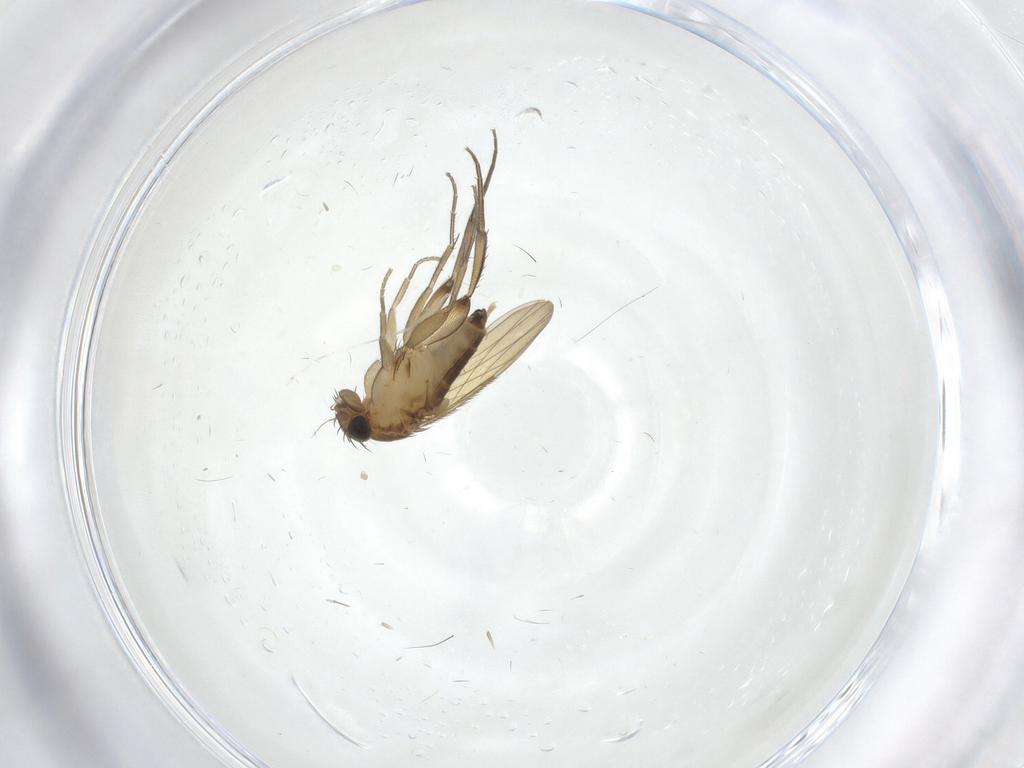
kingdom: Animalia
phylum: Arthropoda
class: Insecta
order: Diptera
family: Phoridae
